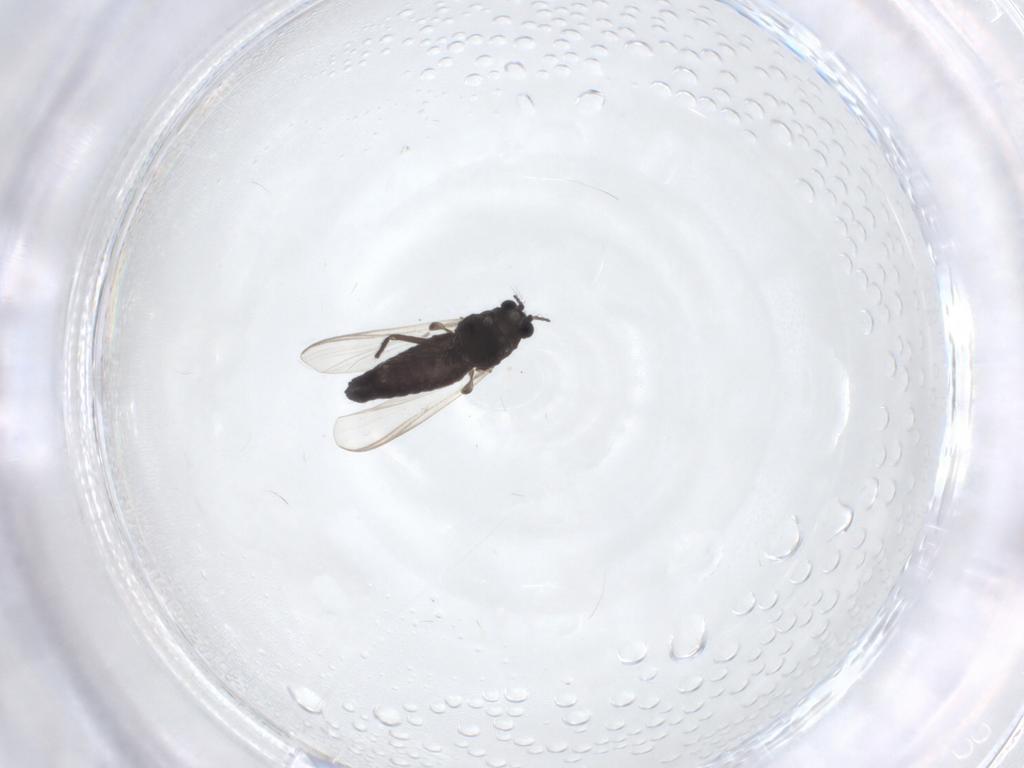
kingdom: Animalia
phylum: Arthropoda
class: Insecta
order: Diptera
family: Chironomidae
